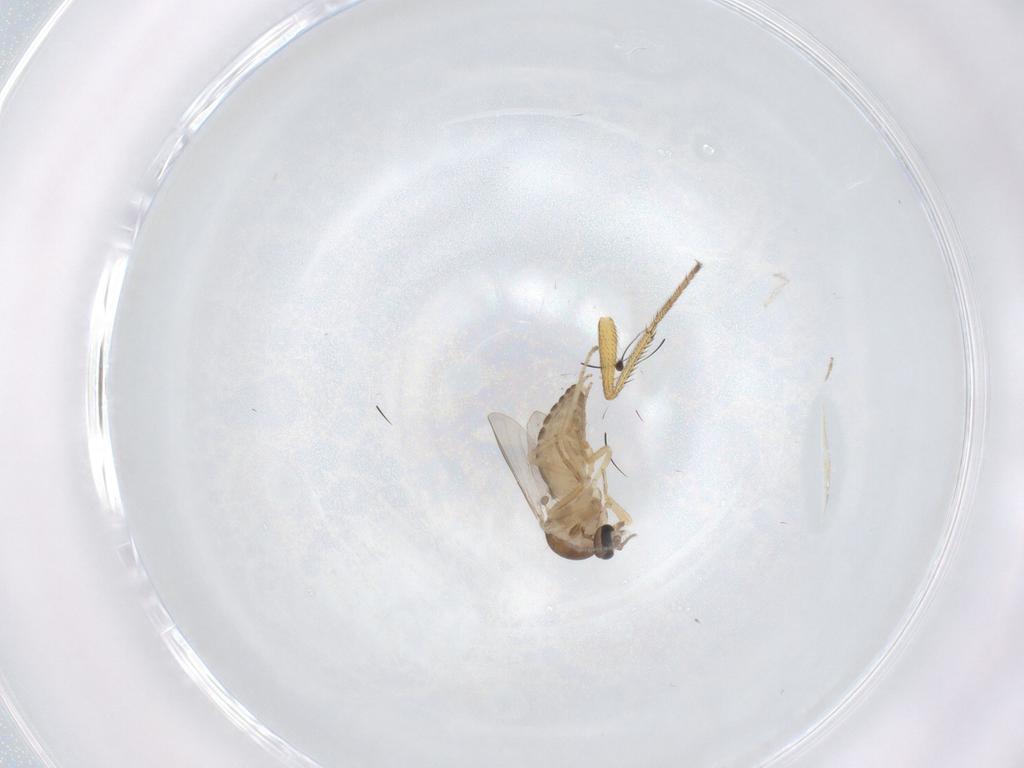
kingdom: Animalia
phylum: Arthropoda
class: Insecta
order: Diptera
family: Ceratopogonidae
